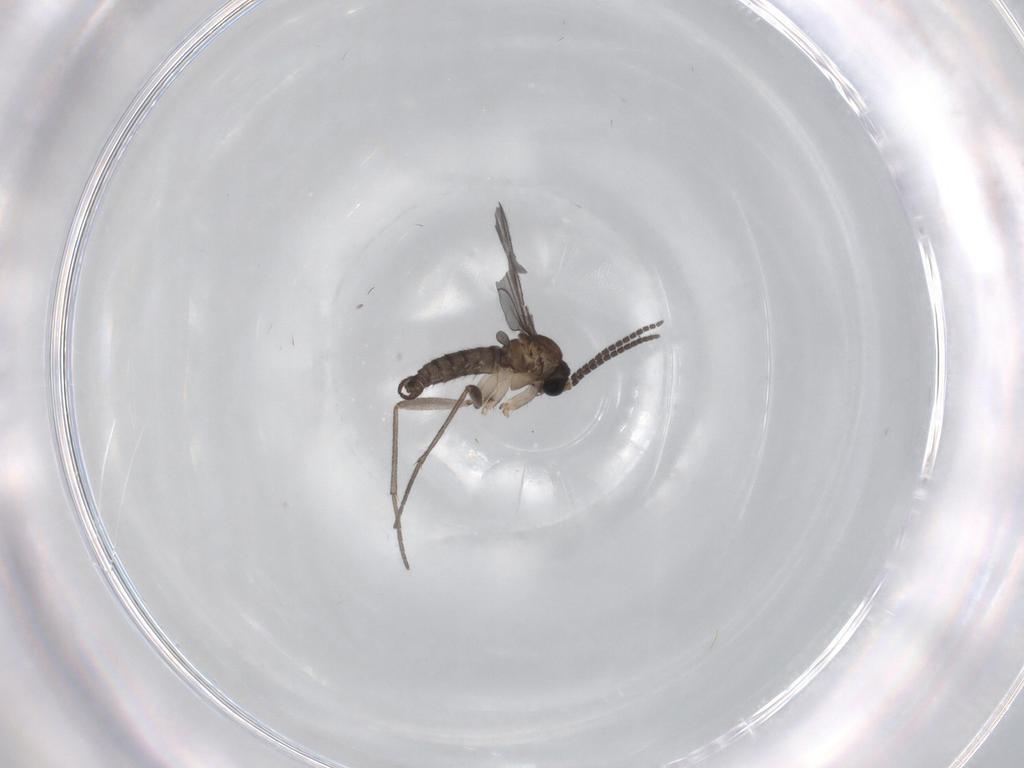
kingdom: Animalia
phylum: Arthropoda
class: Insecta
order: Diptera
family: Sciaridae
